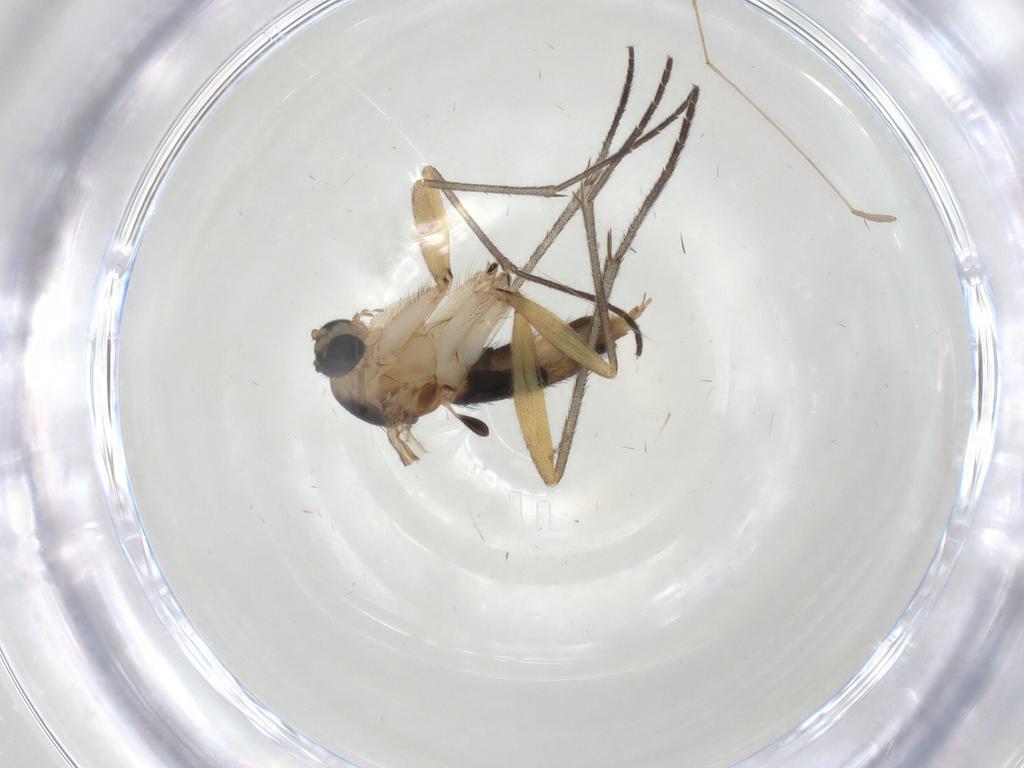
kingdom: Animalia
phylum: Arthropoda
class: Insecta
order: Diptera
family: Sciaridae
